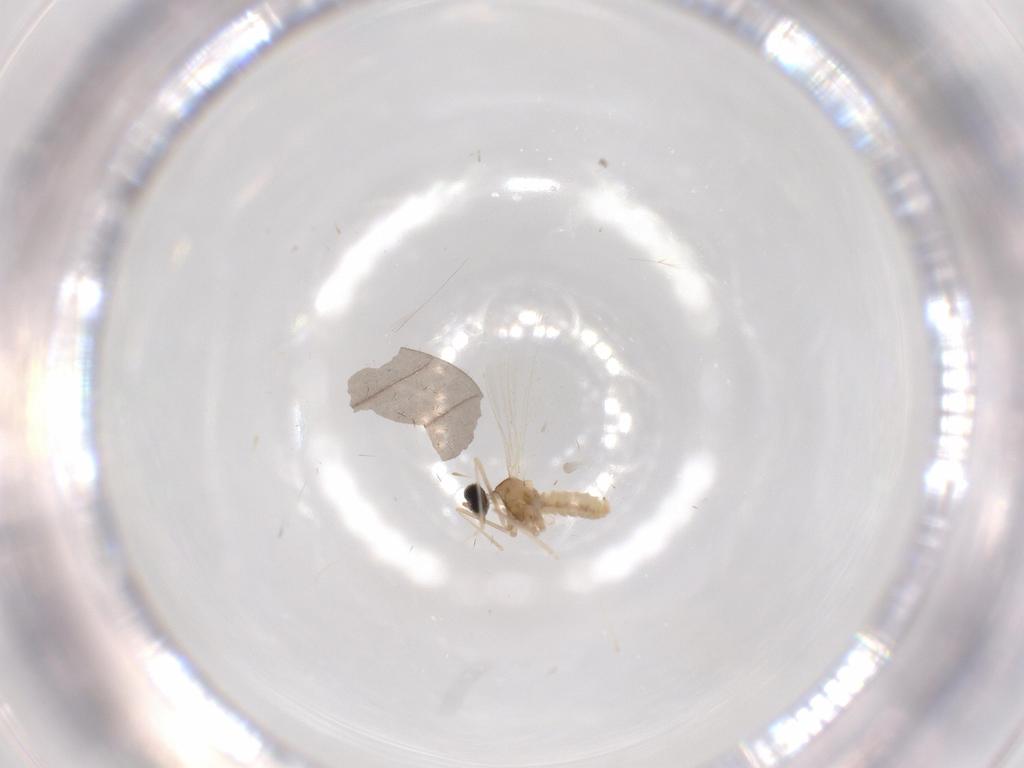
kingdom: Animalia
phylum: Arthropoda
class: Insecta
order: Diptera
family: Cecidomyiidae
